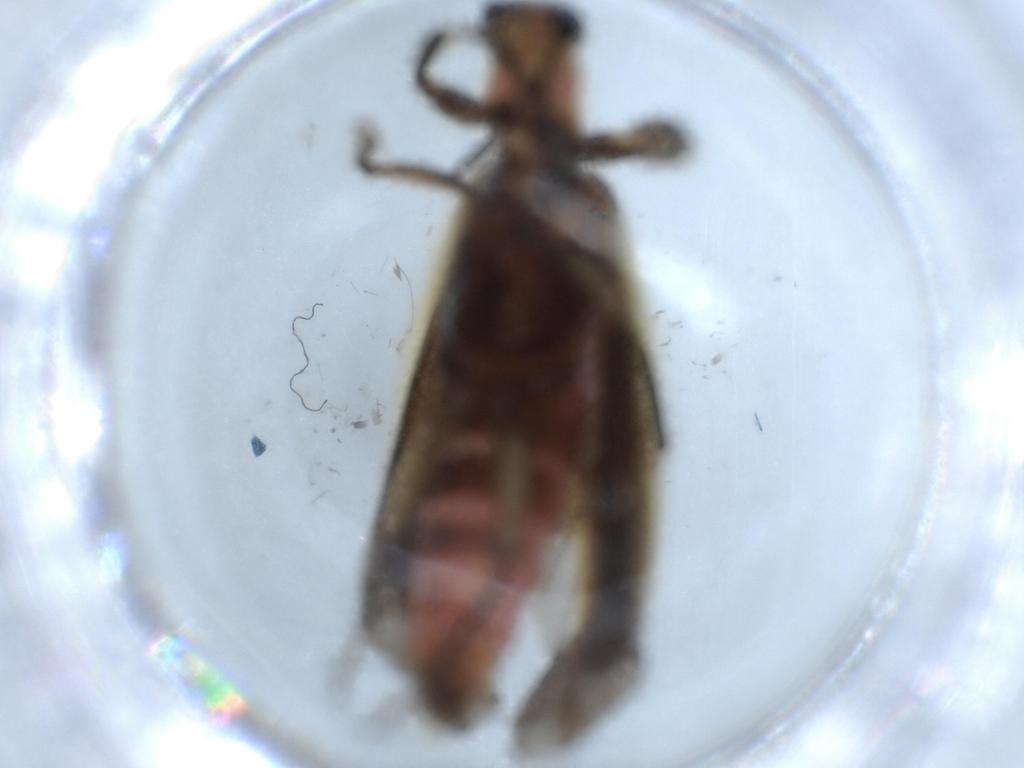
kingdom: Animalia
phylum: Arthropoda
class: Insecta
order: Coleoptera
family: Cleridae
